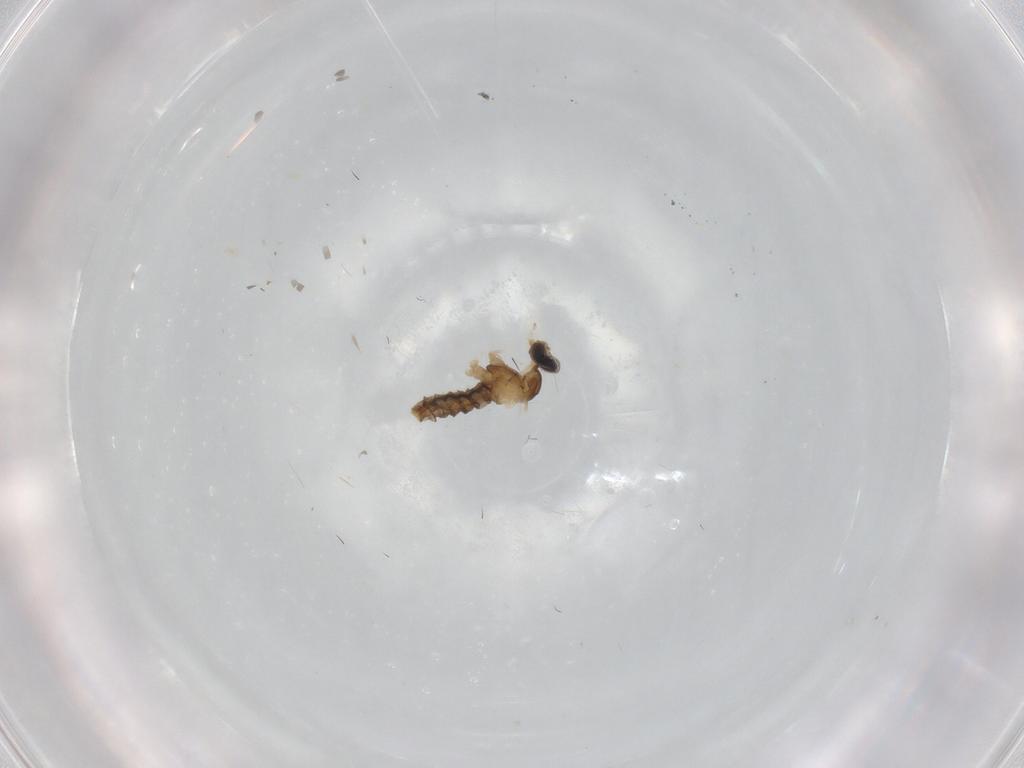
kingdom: Animalia
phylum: Arthropoda
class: Insecta
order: Diptera
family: Cecidomyiidae
